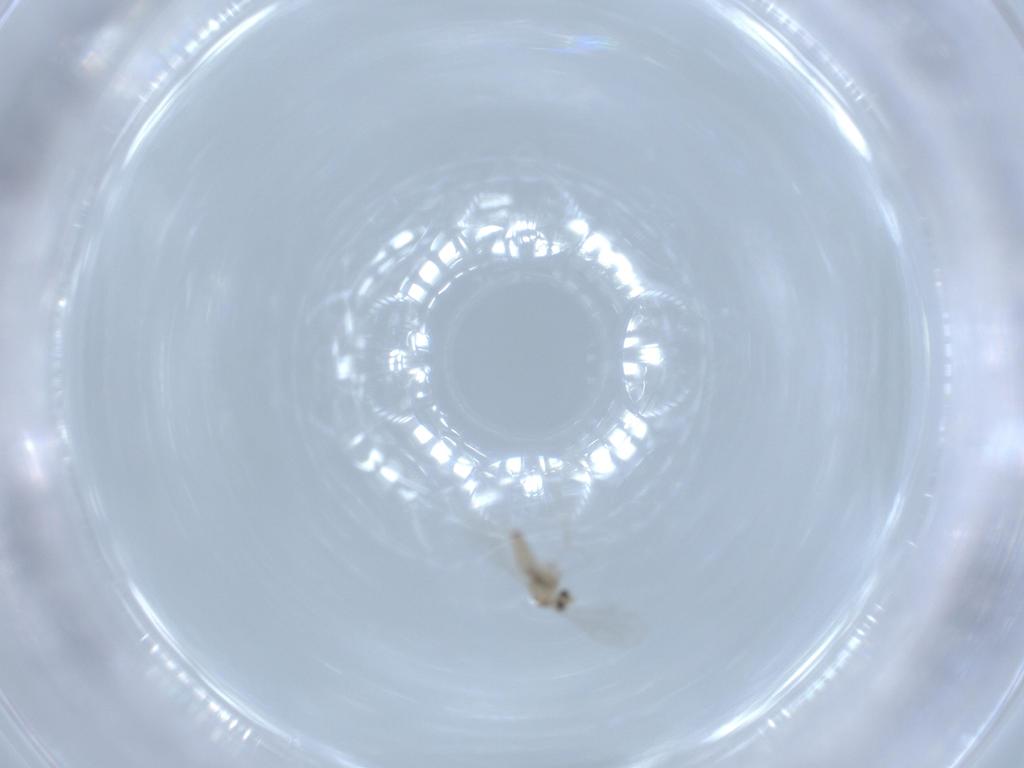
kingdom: Animalia
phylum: Arthropoda
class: Insecta
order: Diptera
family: Cecidomyiidae
